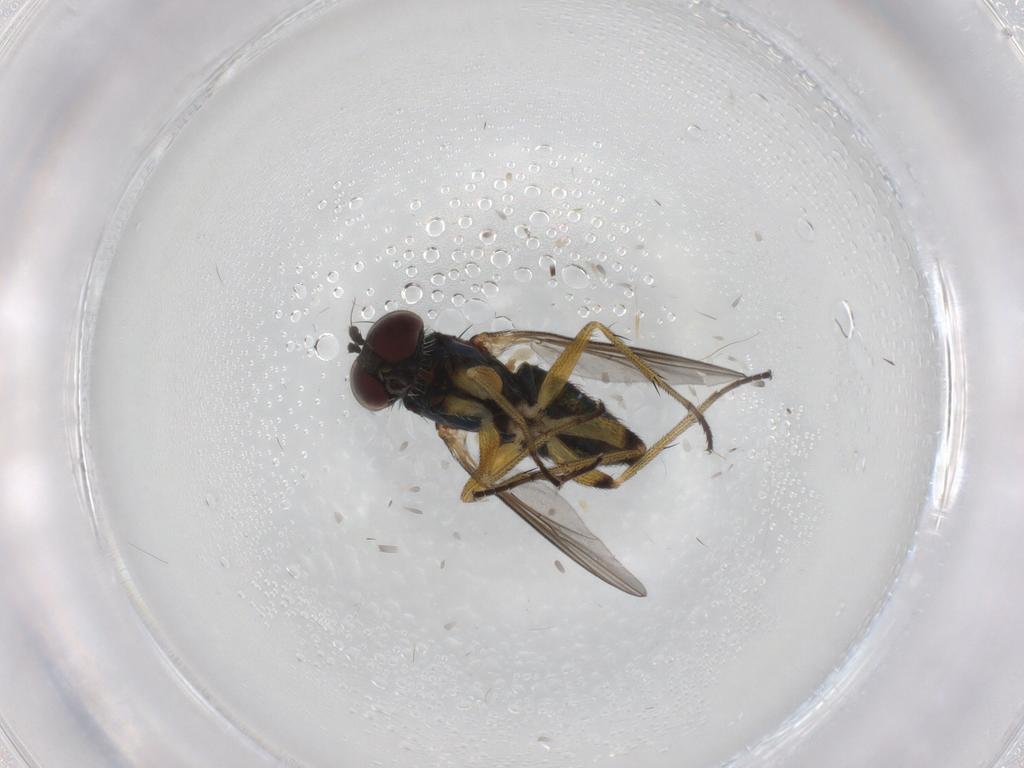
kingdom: Animalia
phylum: Arthropoda
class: Insecta
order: Diptera
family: Dolichopodidae
